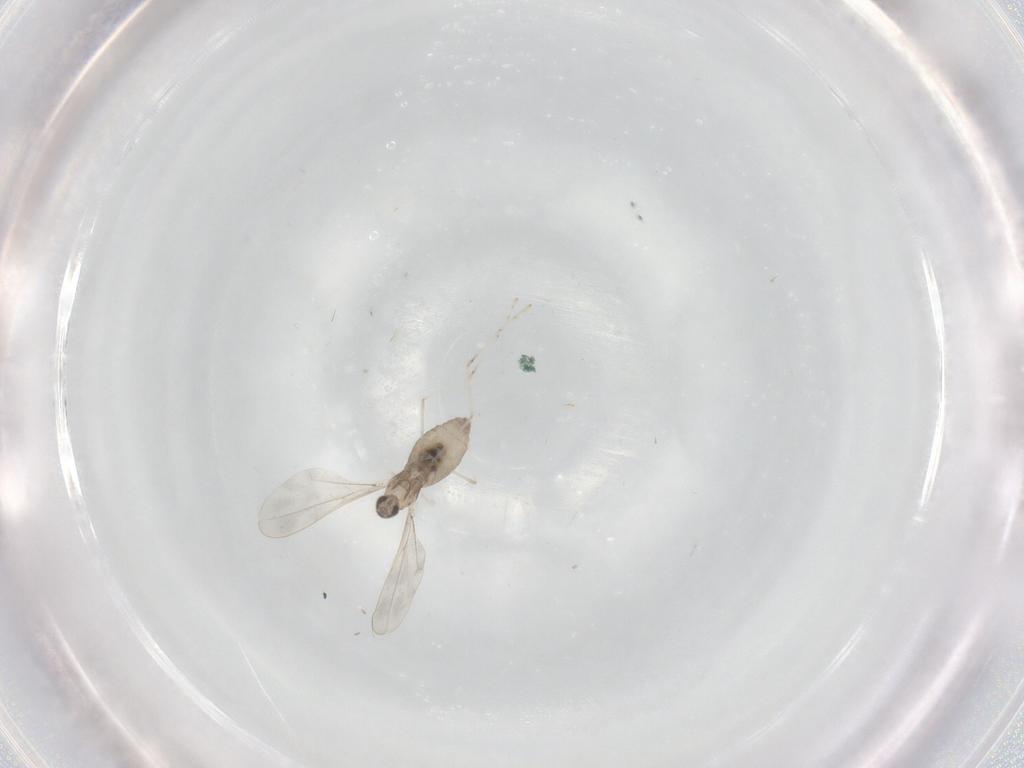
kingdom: Animalia
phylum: Arthropoda
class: Insecta
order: Diptera
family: Cecidomyiidae
